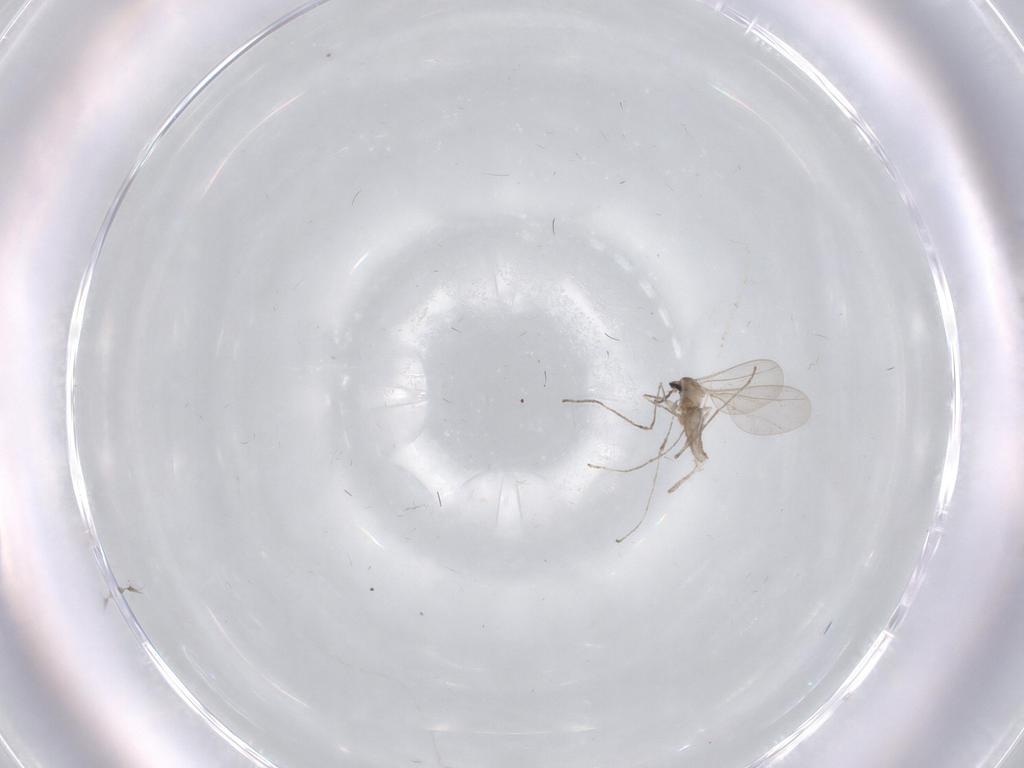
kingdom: Animalia
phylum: Arthropoda
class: Insecta
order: Diptera
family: Cecidomyiidae
